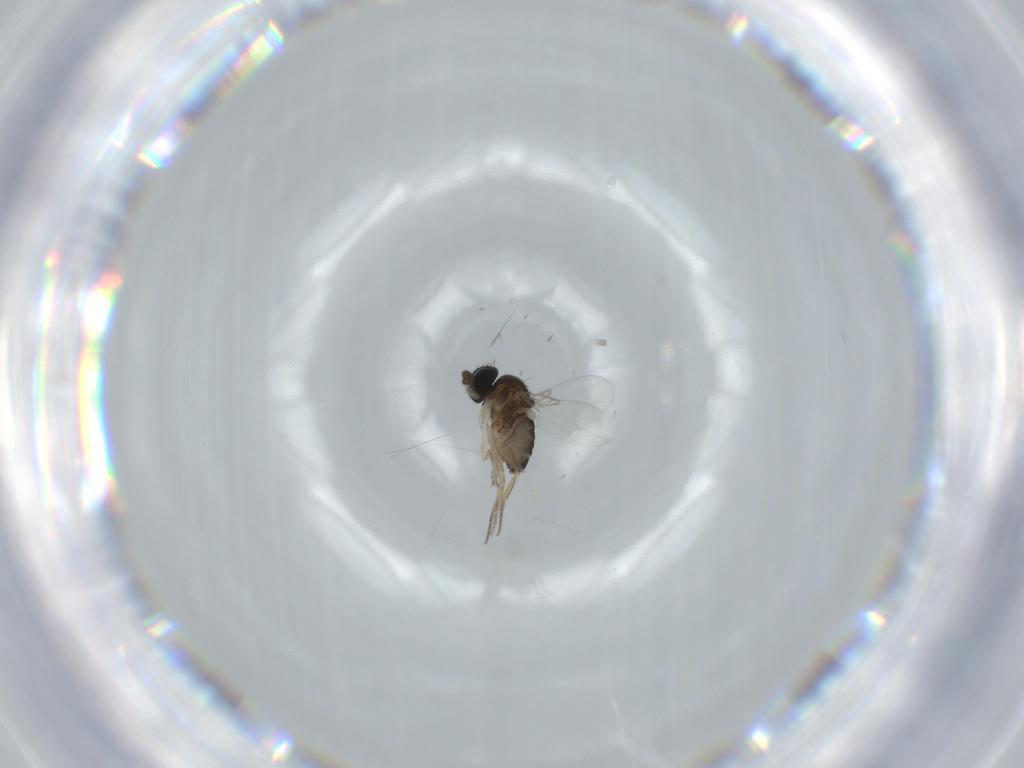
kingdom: Animalia
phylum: Arthropoda
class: Insecta
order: Diptera
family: Phoridae
